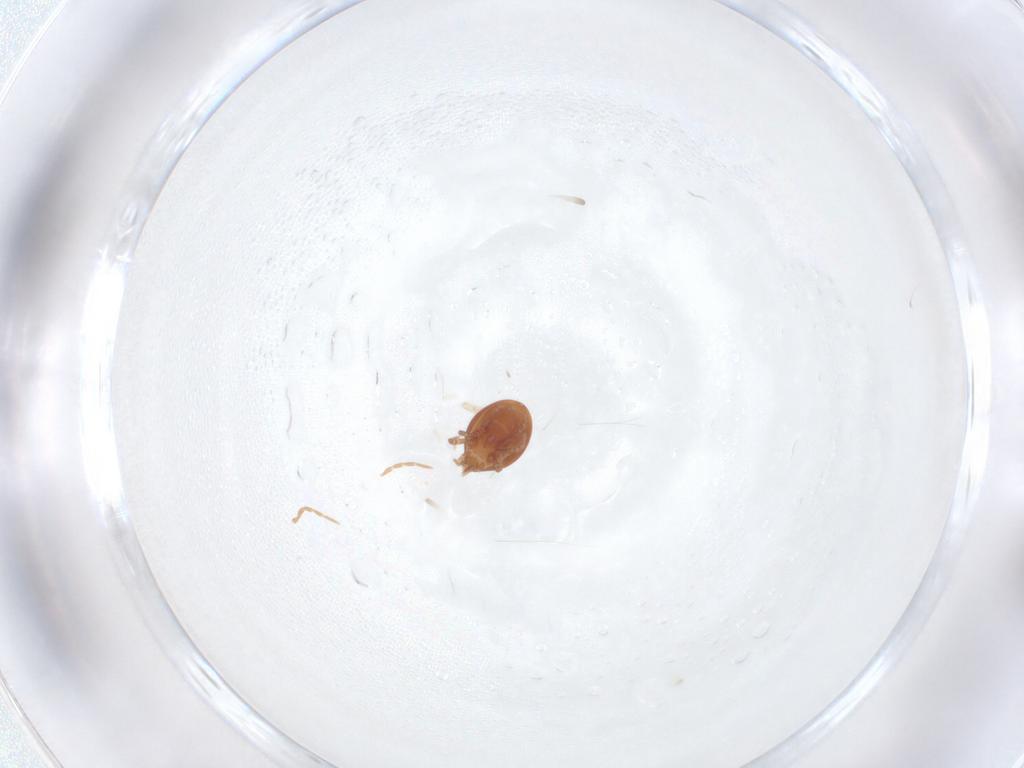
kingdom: Animalia
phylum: Arthropoda
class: Arachnida
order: Mesostigmata
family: Parasitidae
